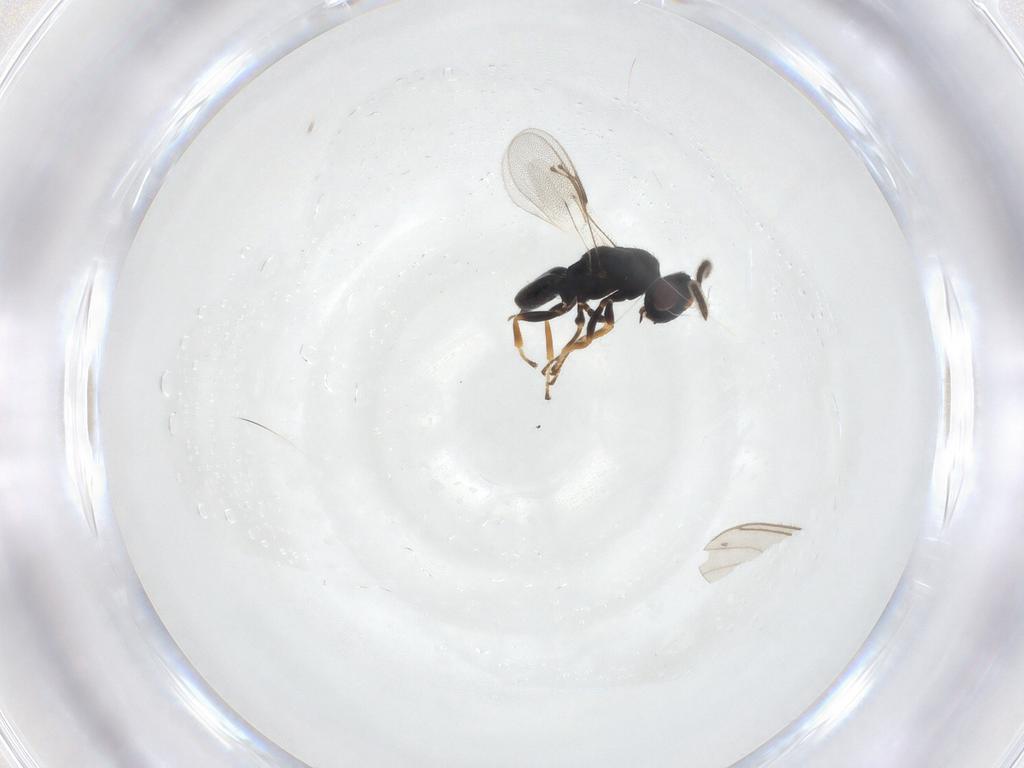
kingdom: Animalia
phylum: Arthropoda
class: Insecta
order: Hymenoptera
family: Pteromalidae
